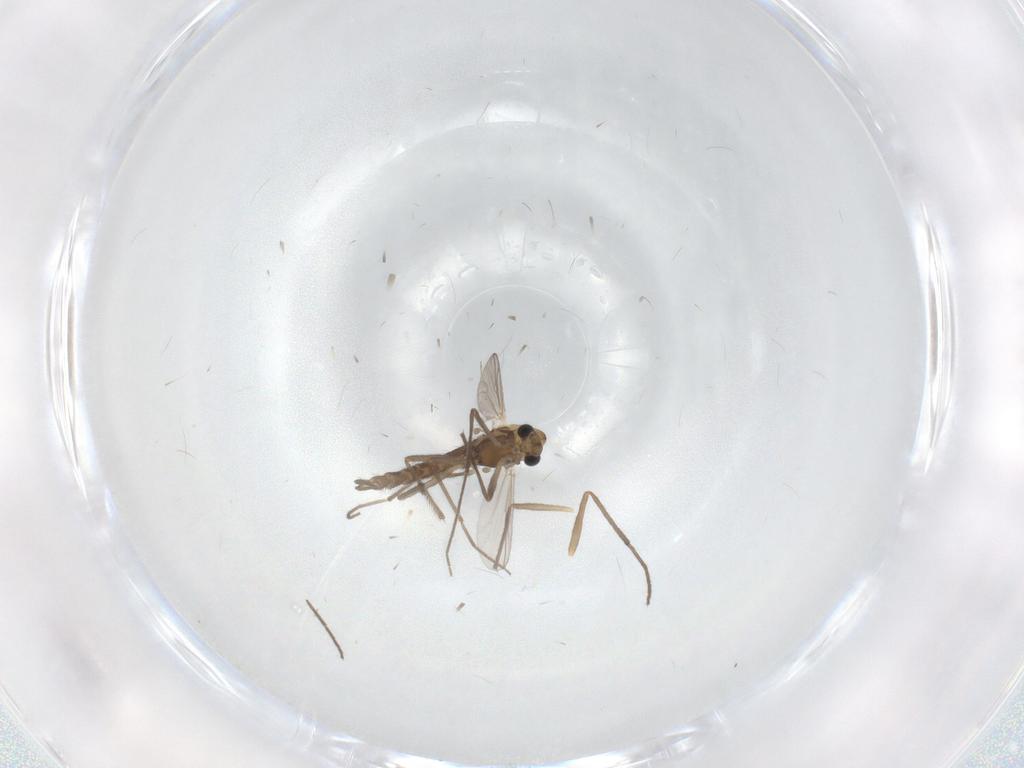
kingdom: Animalia
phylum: Arthropoda
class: Insecta
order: Diptera
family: Chironomidae
